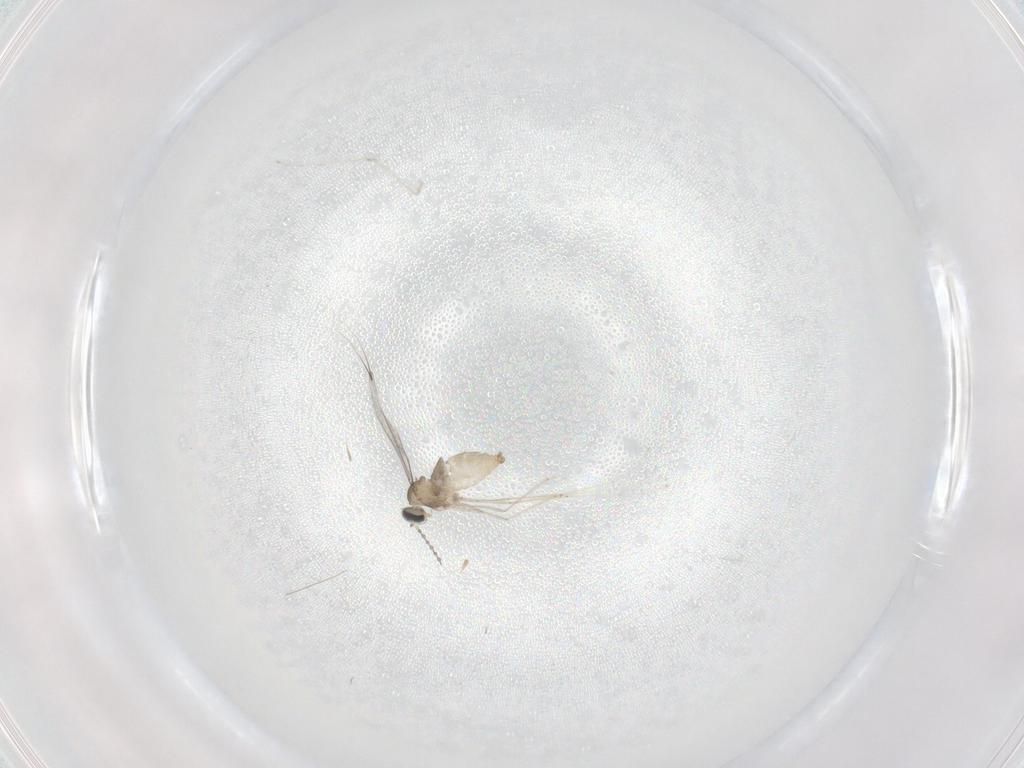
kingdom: Animalia
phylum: Arthropoda
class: Insecta
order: Diptera
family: Cecidomyiidae
